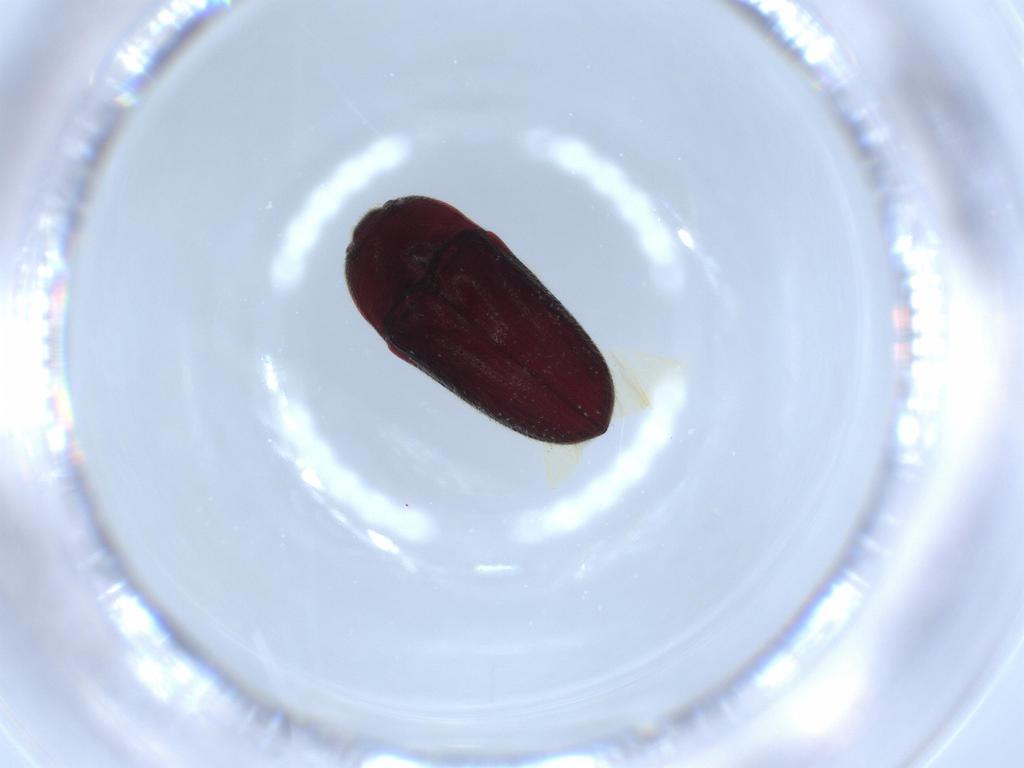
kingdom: Animalia
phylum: Arthropoda
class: Insecta
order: Coleoptera
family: Throscidae
